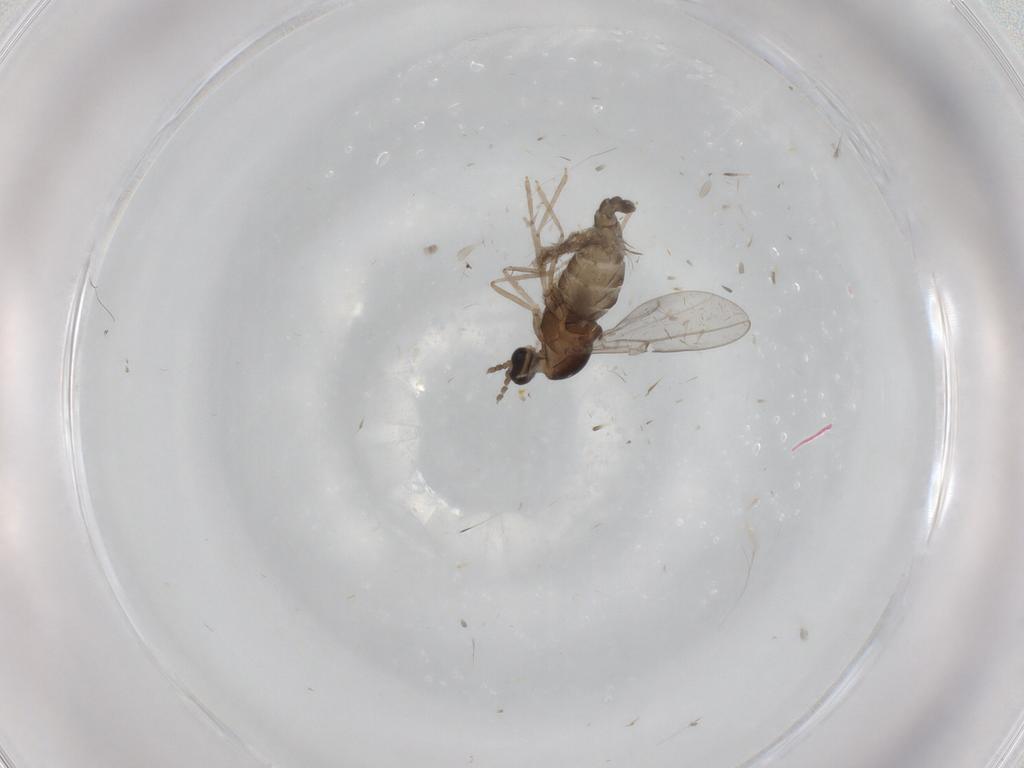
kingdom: Animalia
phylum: Arthropoda
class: Insecta
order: Diptera
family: Cecidomyiidae
